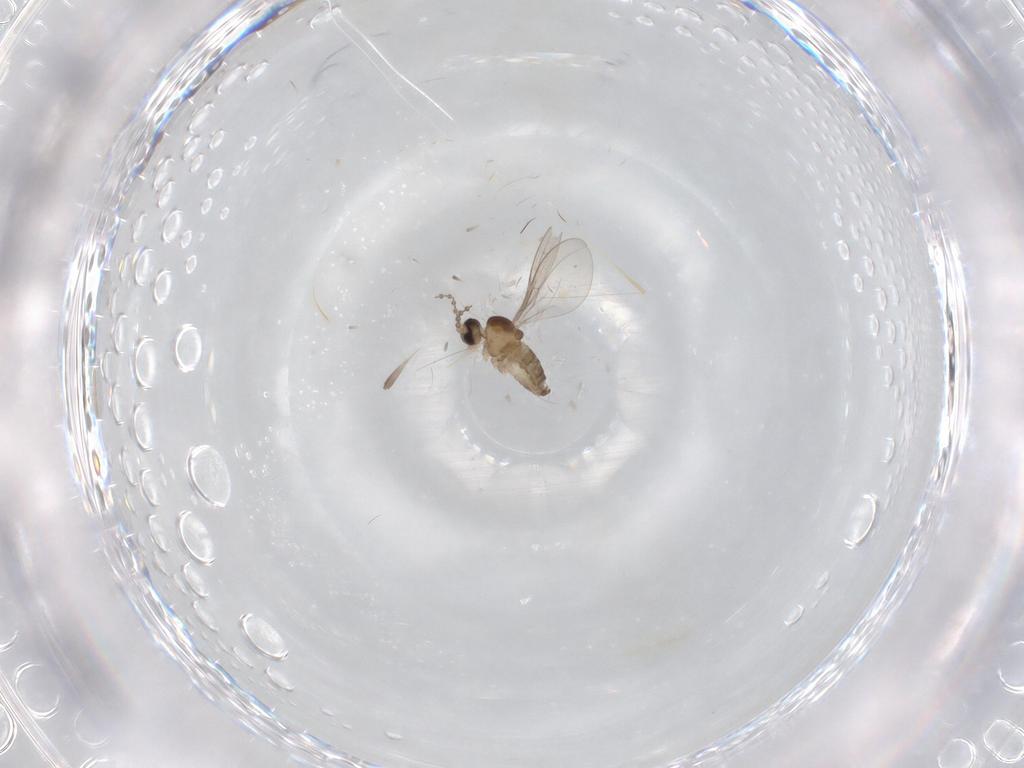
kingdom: Animalia
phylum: Arthropoda
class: Insecta
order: Diptera
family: Cecidomyiidae
